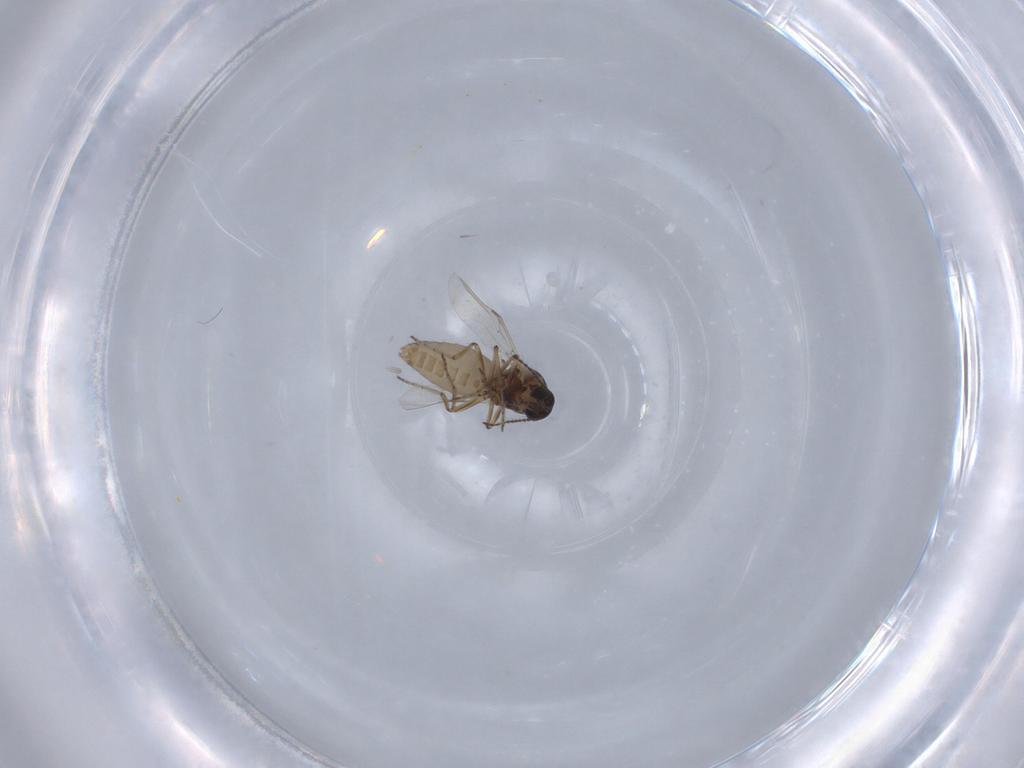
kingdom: Animalia
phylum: Arthropoda
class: Insecta
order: Diptera
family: Ceratopogonidae
